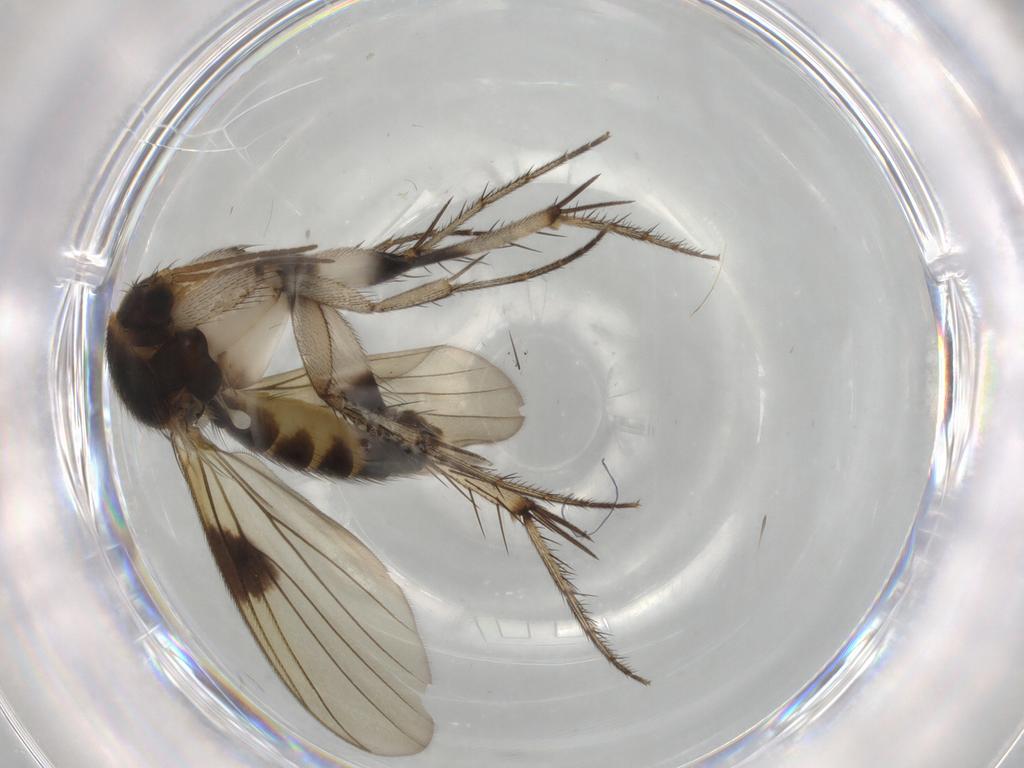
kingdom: Animalia
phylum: Arthropoda
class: Insecta
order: Diptera
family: Mycetophilidae
